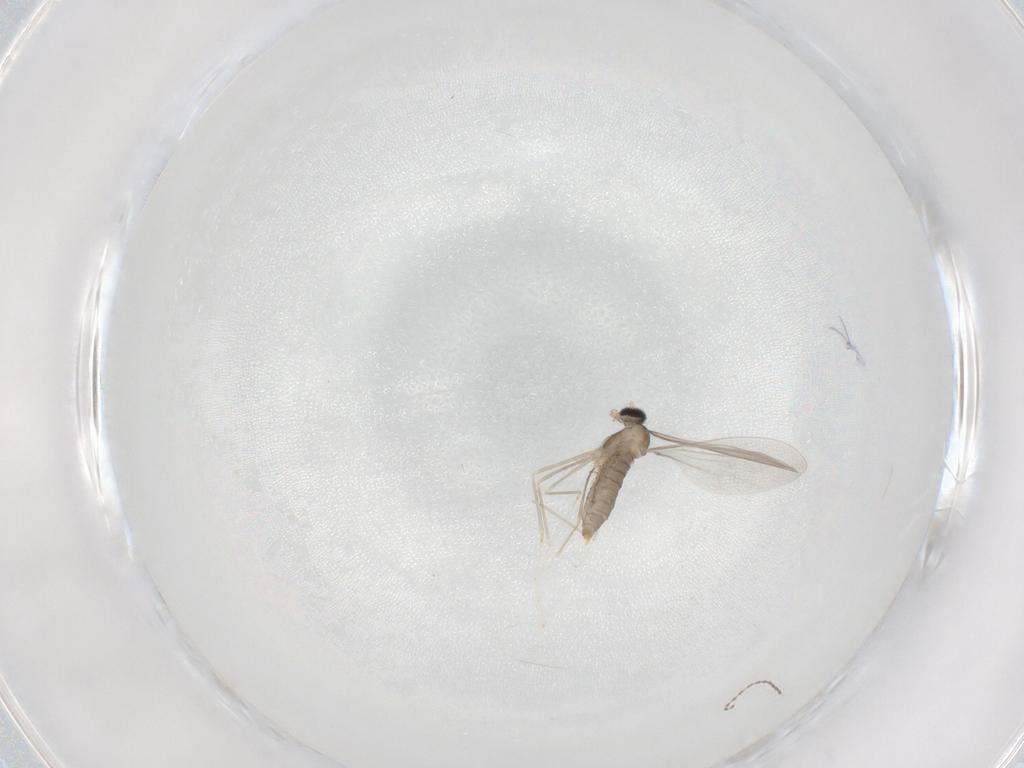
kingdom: Animalia
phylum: Arthropoda
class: Insecta
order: Diptera
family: Cecidomyiidae
